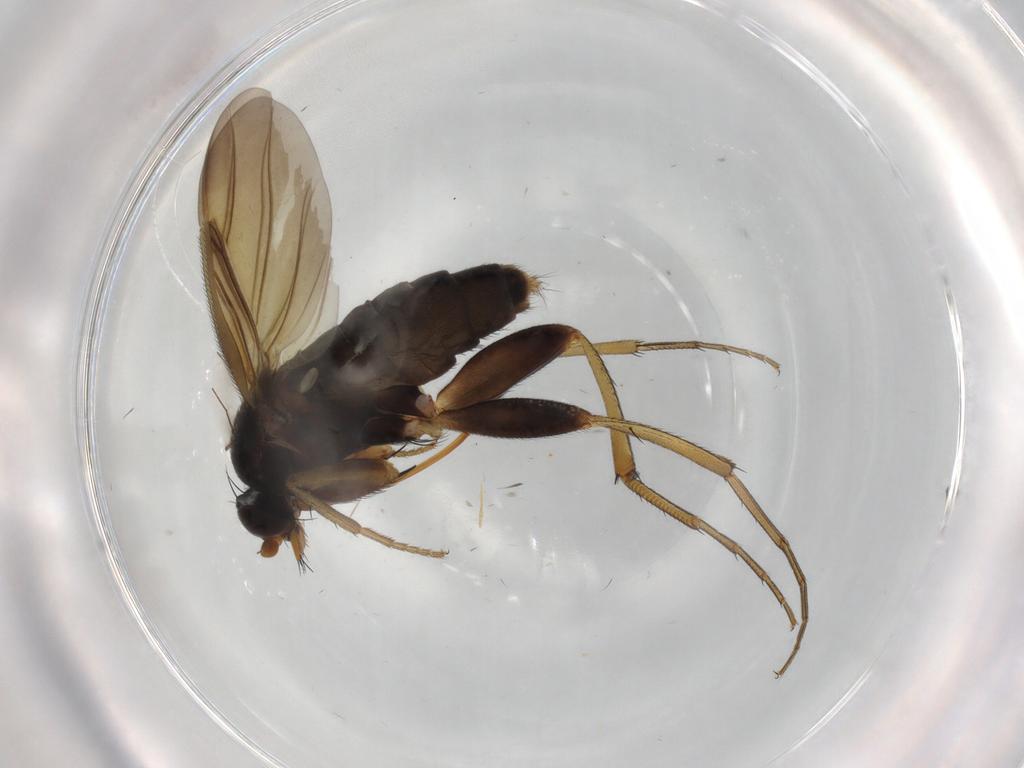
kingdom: Animalia
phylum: Arthropoda
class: Insecta
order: Diptera
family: Phoridae
